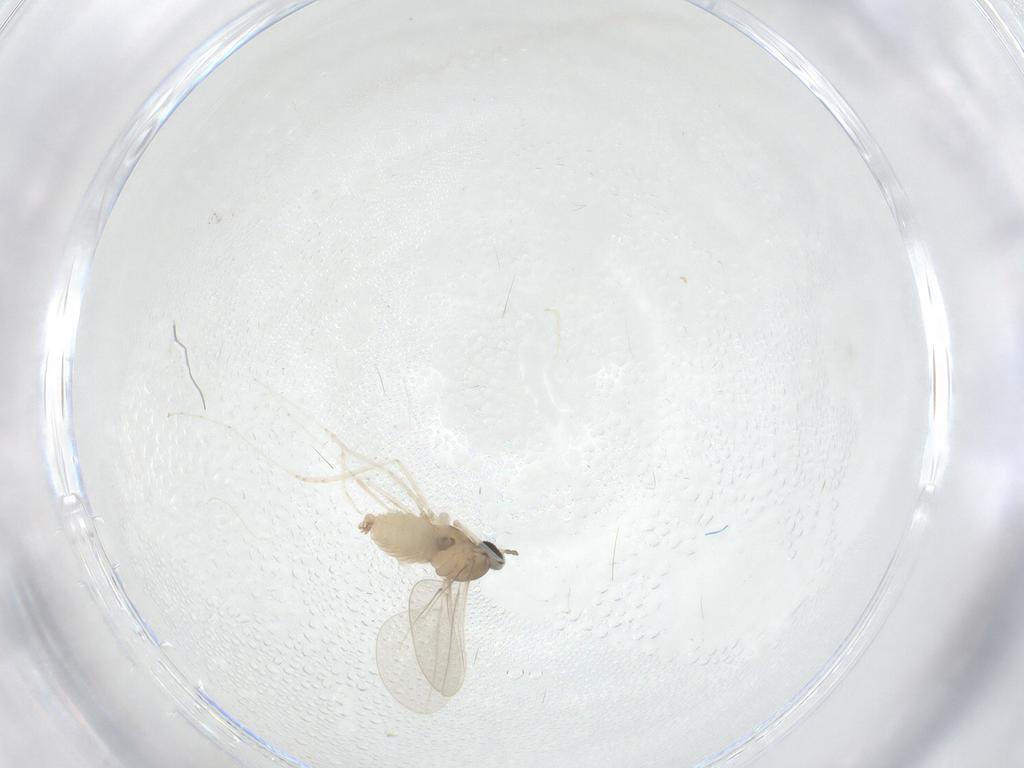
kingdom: Animalia
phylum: Arthropoda
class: Insecta
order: Diptera
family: Cecidomyiidae
